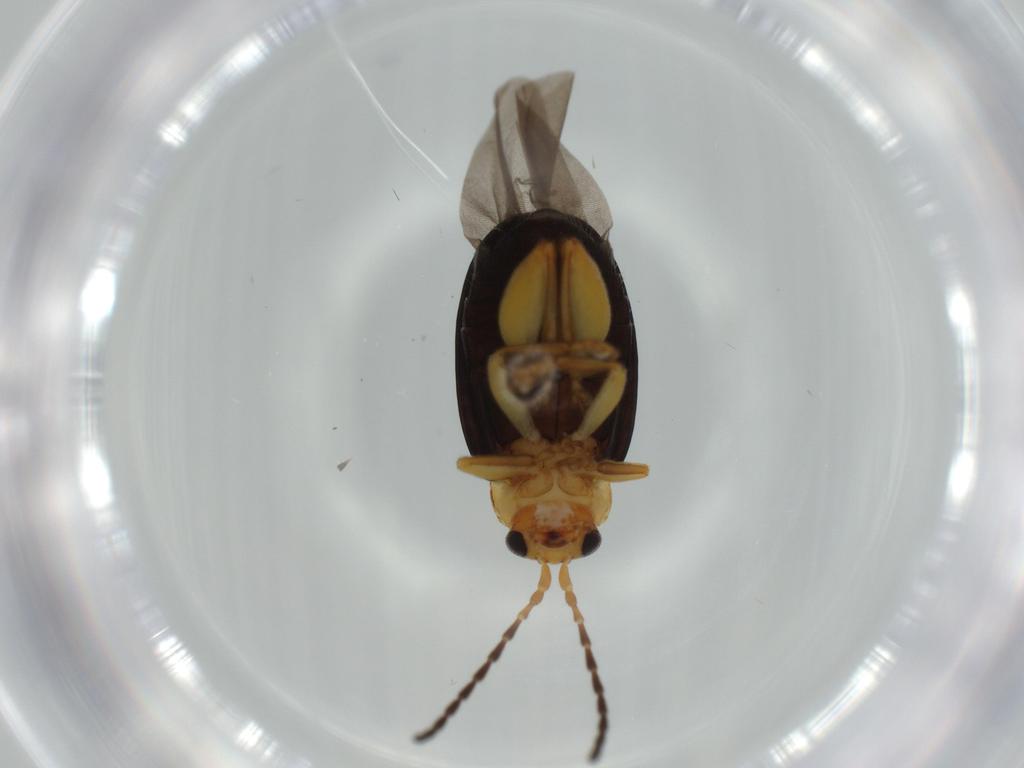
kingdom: Animalia
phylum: Arthropoda
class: Insecta
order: Coleoptera
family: Chrysomelidae
